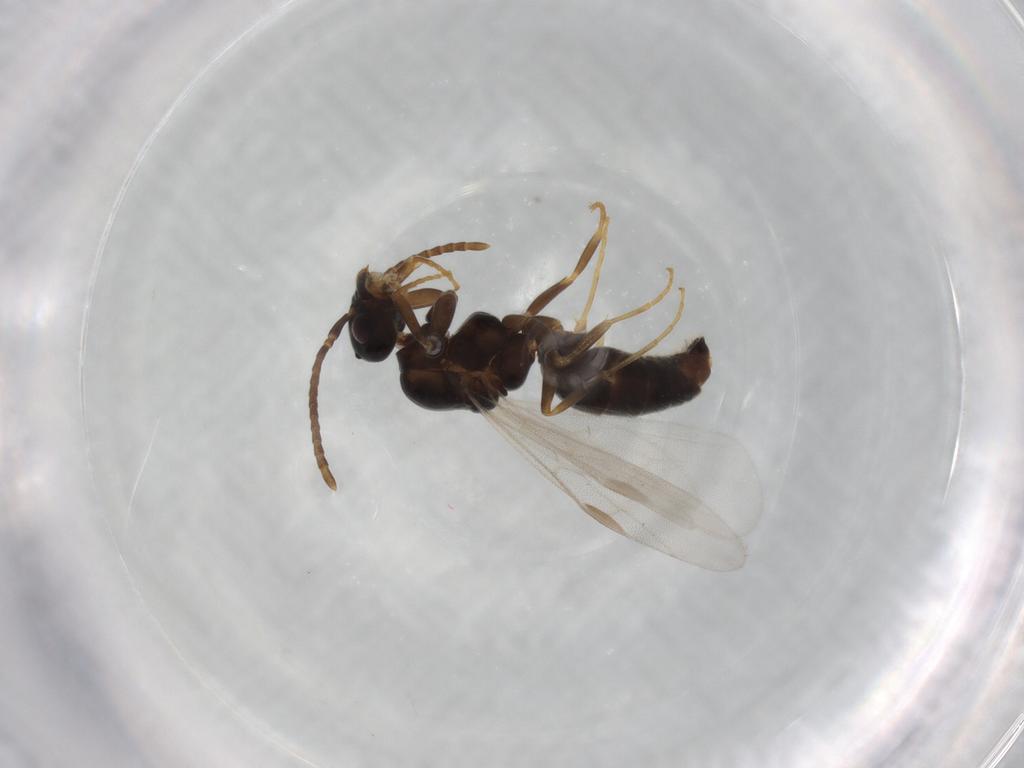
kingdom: Animalia
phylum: Arthropoda
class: Insecta
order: Hymenoptera
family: Formicidae
